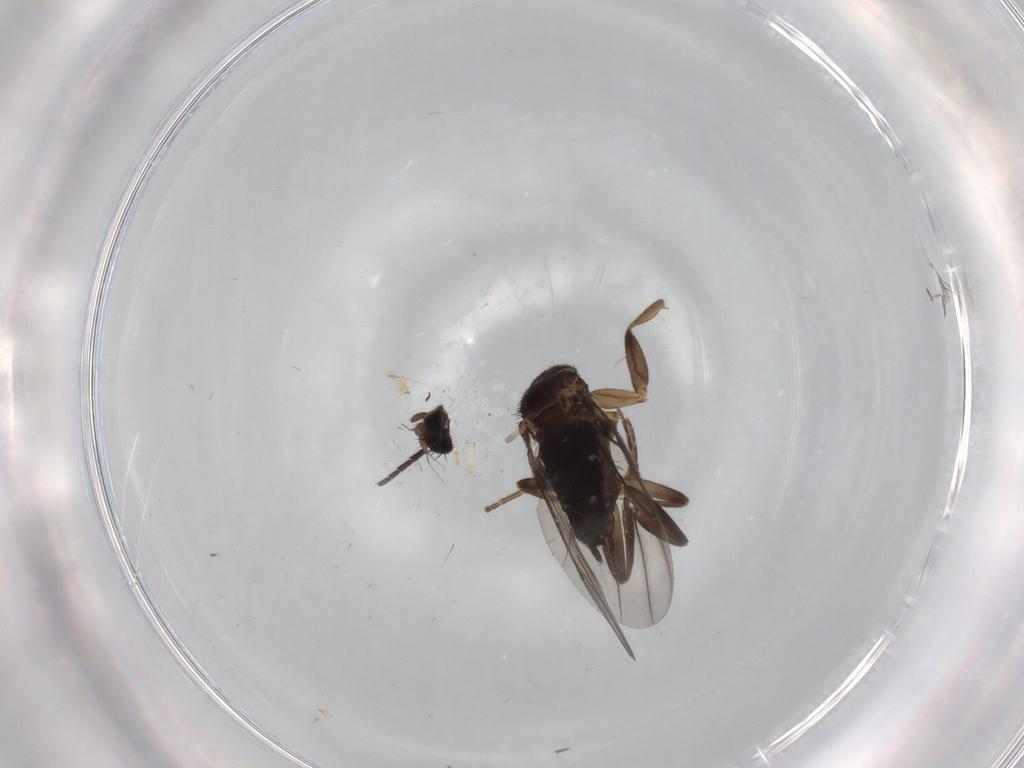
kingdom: Animalia
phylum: Arthropoda
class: Insecta
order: Diptera
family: Cecidomyiidae
